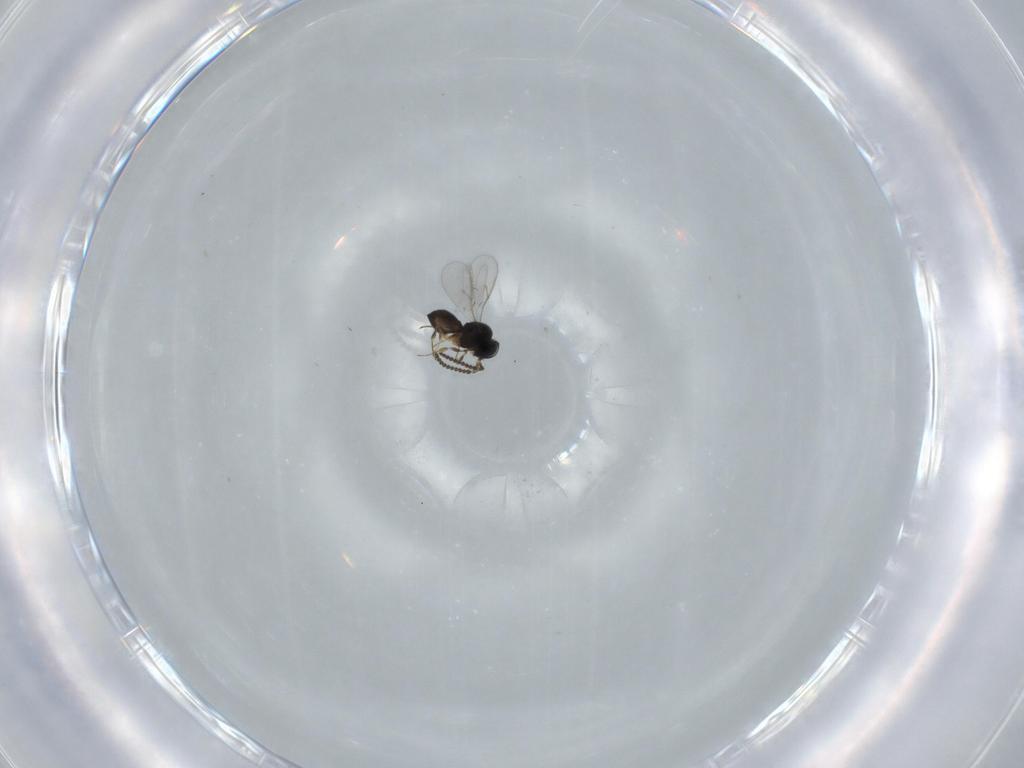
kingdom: Animalia
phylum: Arthropoda
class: Insecta
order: Hymenoptera
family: Scelionidae
